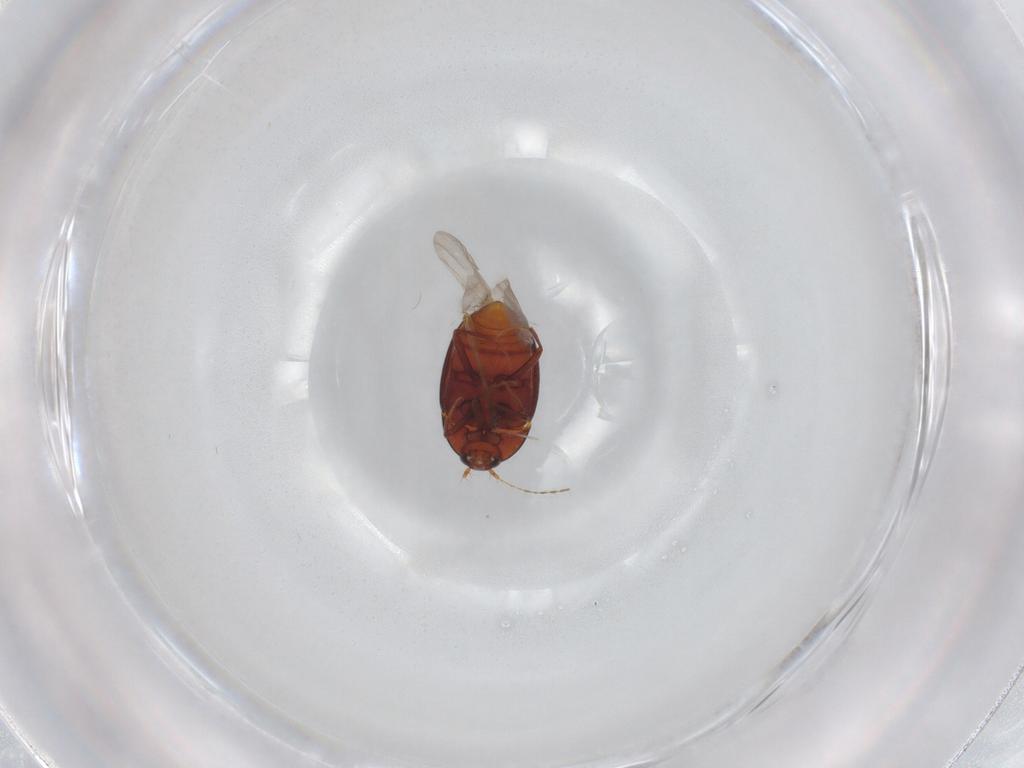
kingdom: Animalia
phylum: Arthropoda
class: Insecta
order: Coleoptera
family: Staphylinidae
